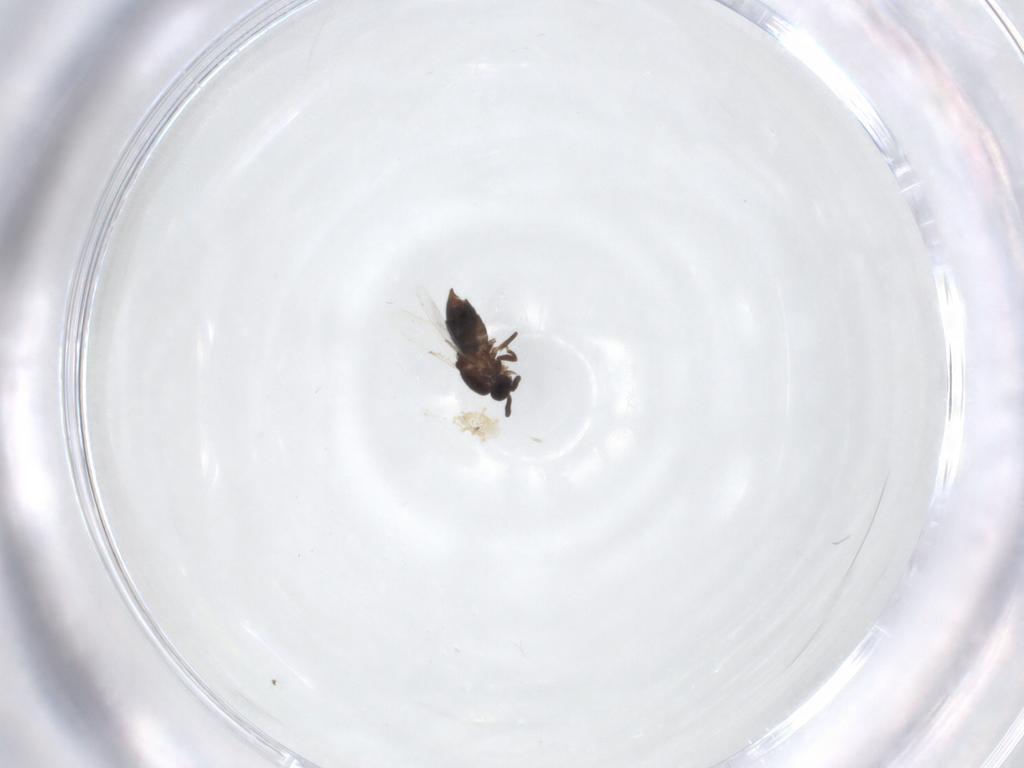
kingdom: Animalia
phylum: Arthropoda
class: Insecta
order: Diptera
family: Scatopsidae
